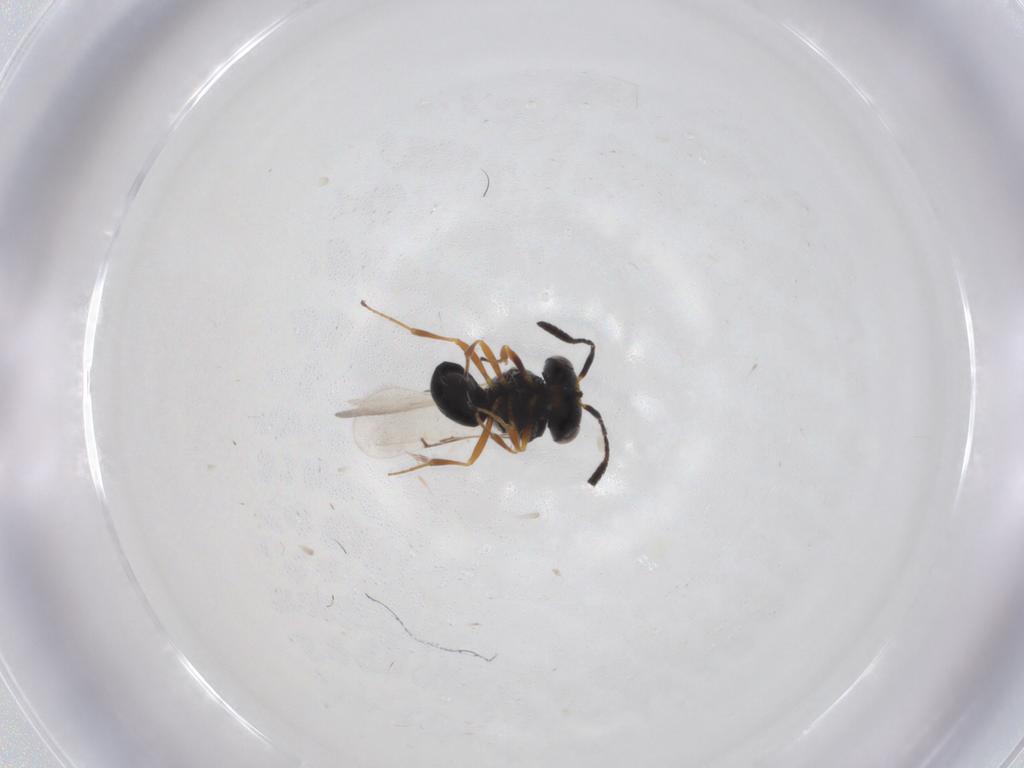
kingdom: Animalia
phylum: Arthropoda
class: Insecta
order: Hymenoptera
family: Scelionidae
